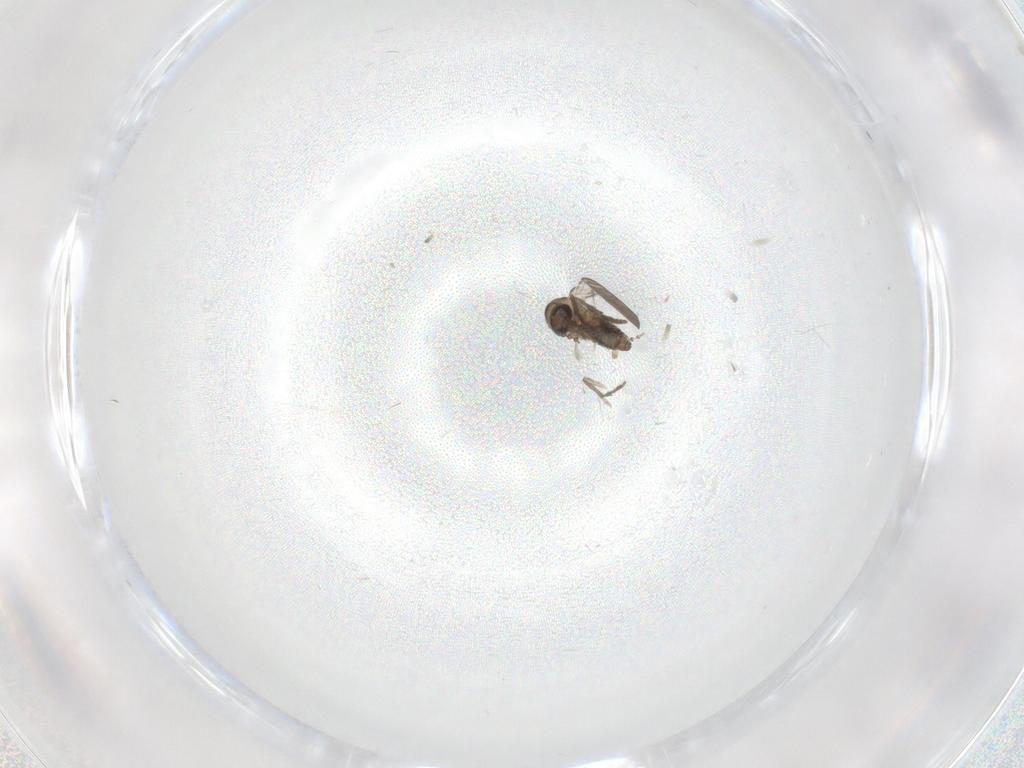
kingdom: Animalia
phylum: Arthropoda
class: Insecta
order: Diptera
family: Psychodidae
